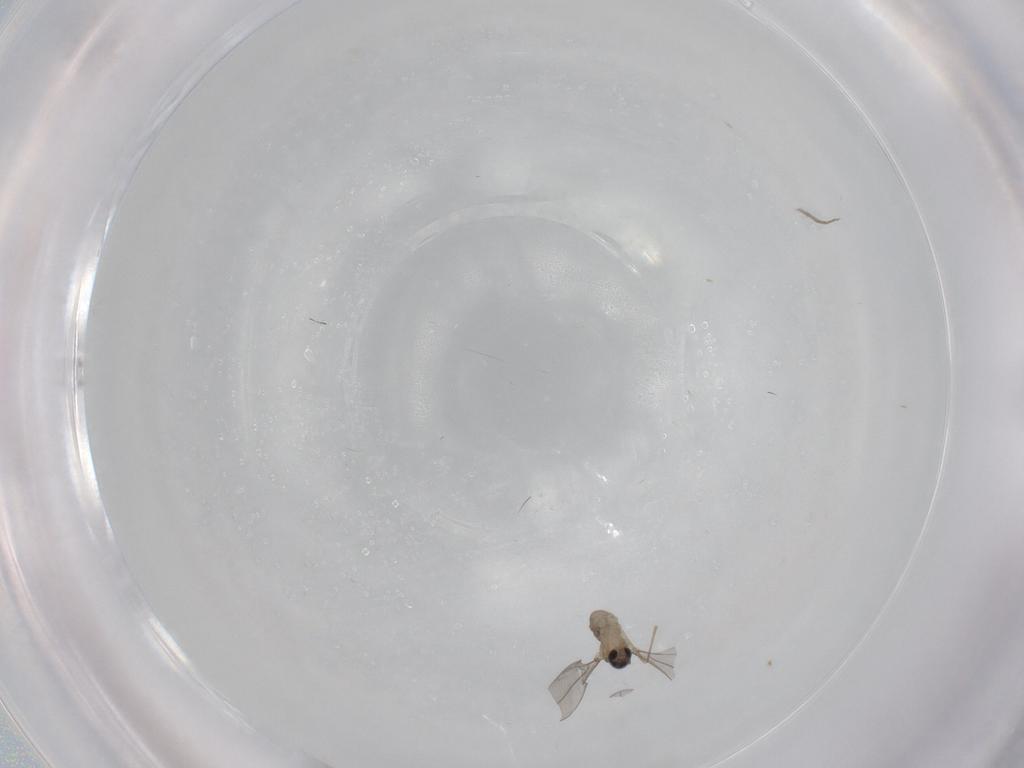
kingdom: Animalia
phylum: Arthropoda
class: Insecta
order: Diptera
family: Cecidomyiidae
